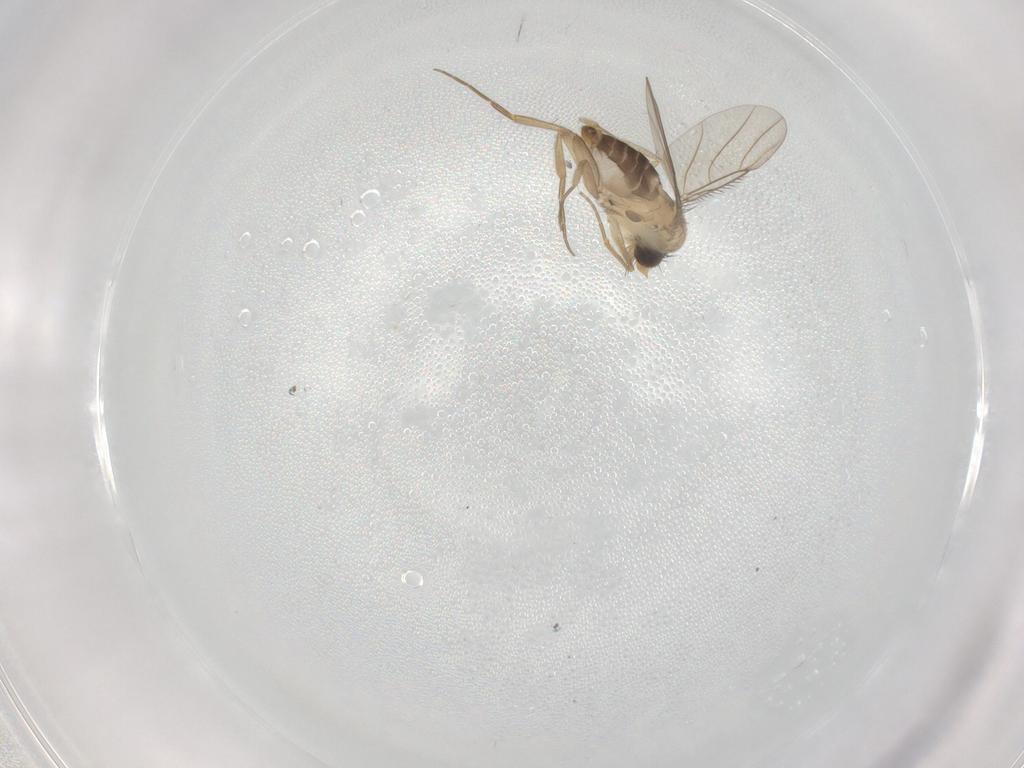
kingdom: Animalia
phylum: Arthropoda
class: Insecta
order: Diptera
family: Phoridae
